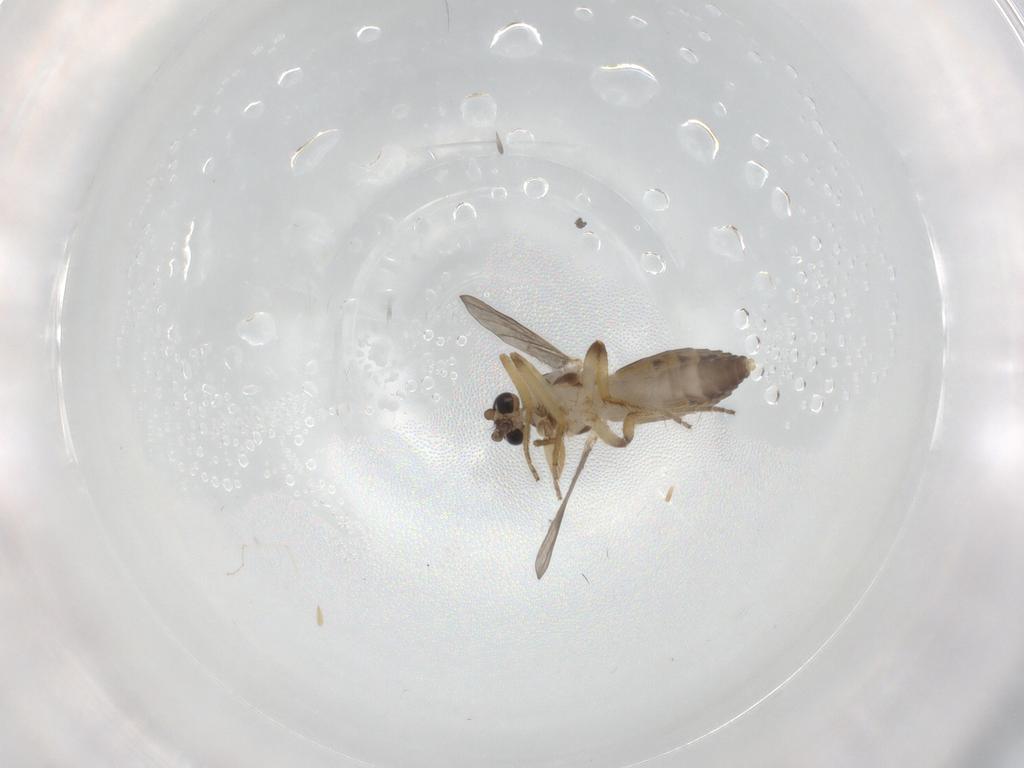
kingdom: Animalia
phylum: Arthropoda
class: Insecta
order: Diptera
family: Ceratopogonidae
